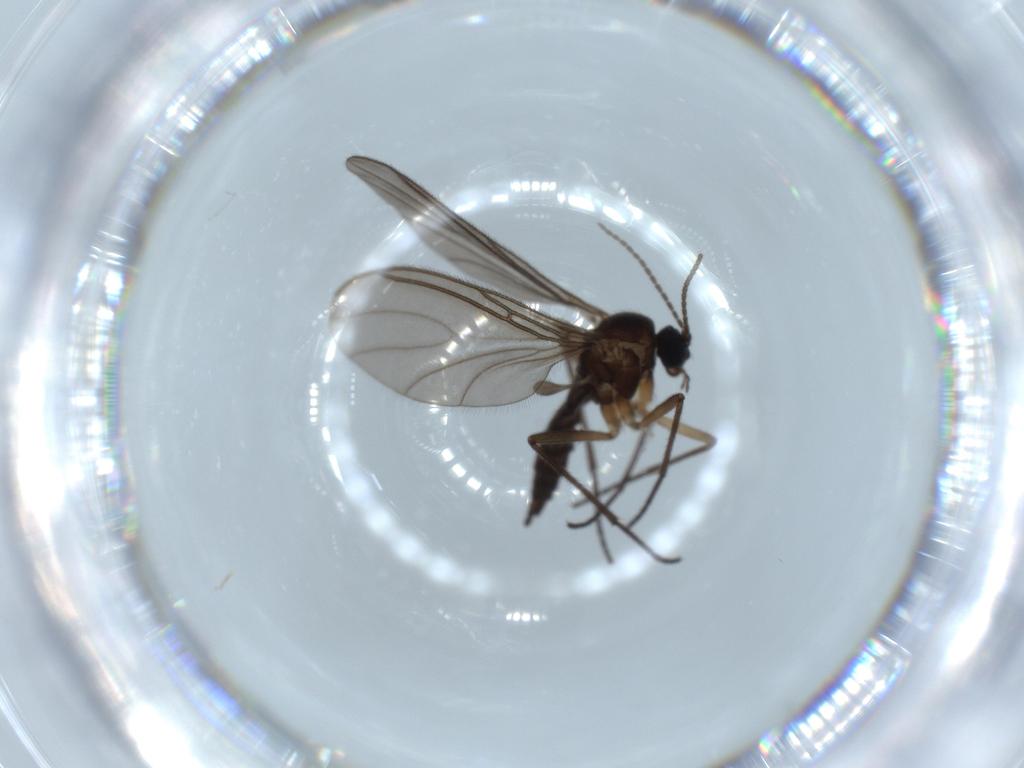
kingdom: Animalia
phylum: Arthropoda
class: Insecta
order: Diptera
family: Sciaridae
